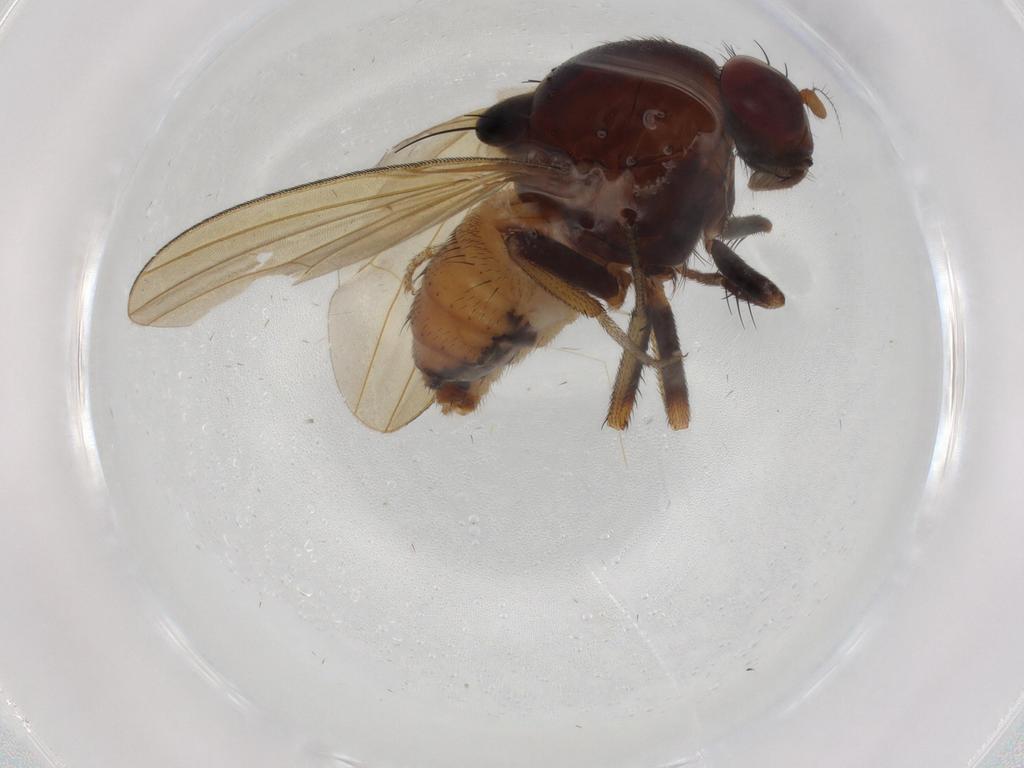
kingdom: Animalia
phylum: Arthropoda
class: Insecta
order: Diptera
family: Lauxaniidae
